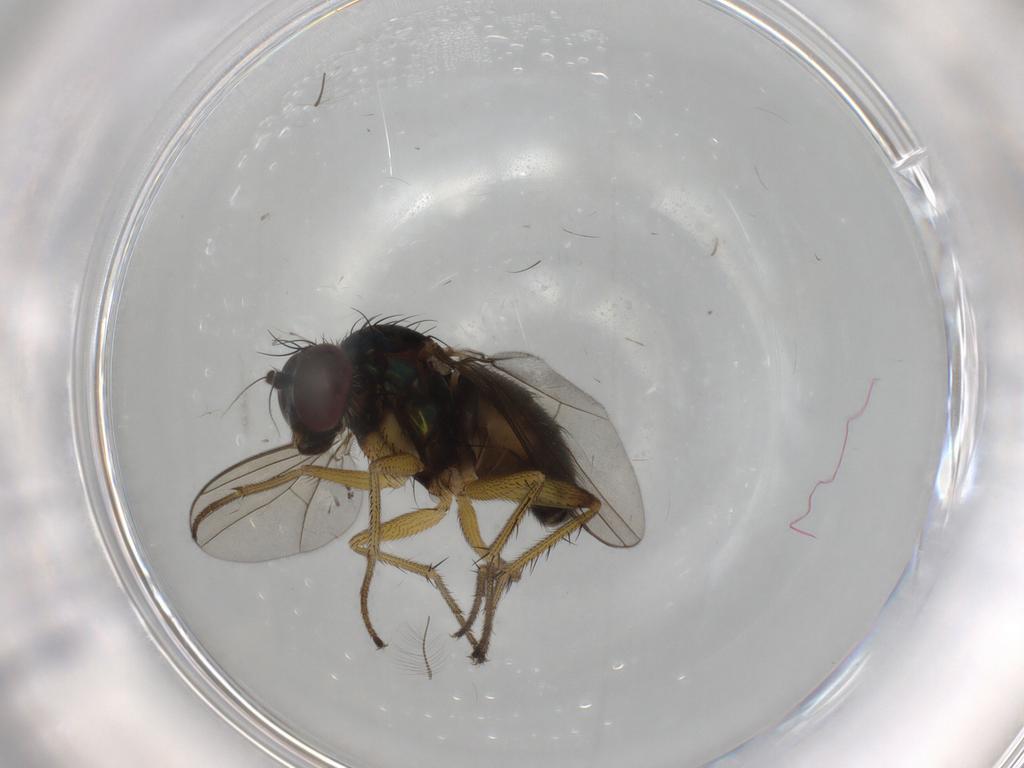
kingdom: Animalia
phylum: Arthropoda
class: Insecta
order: Diptera
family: Dolichopodidae
